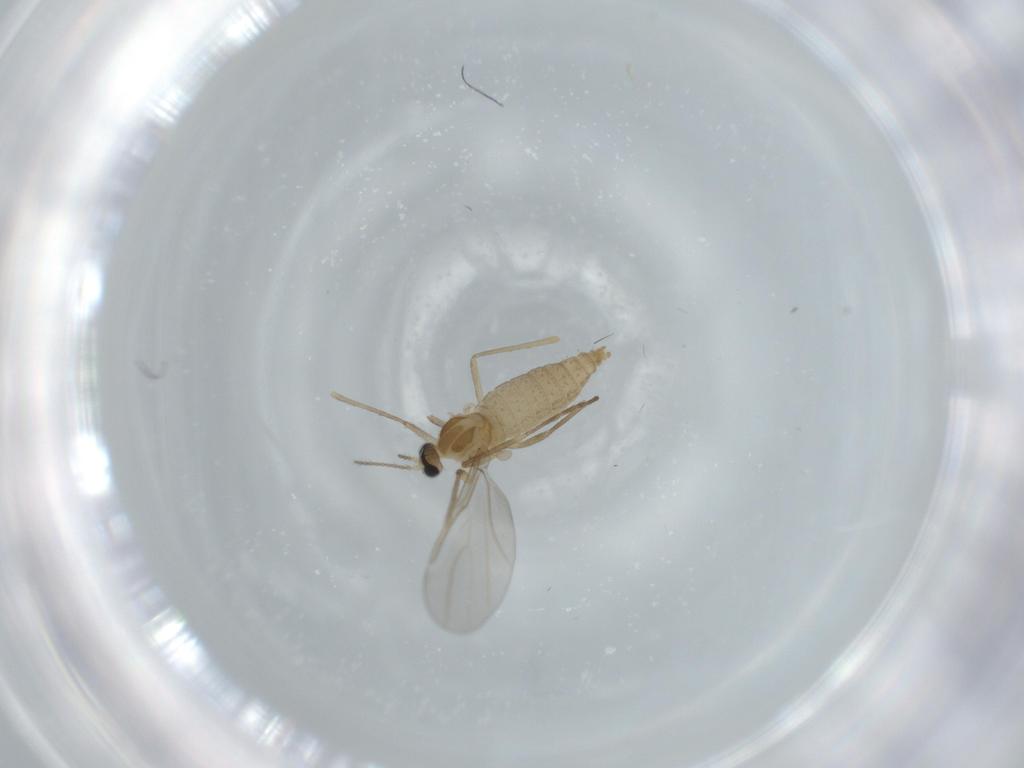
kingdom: Animalia
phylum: Arthropoda
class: Insecta
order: Diptera
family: Cecidomyiidae
